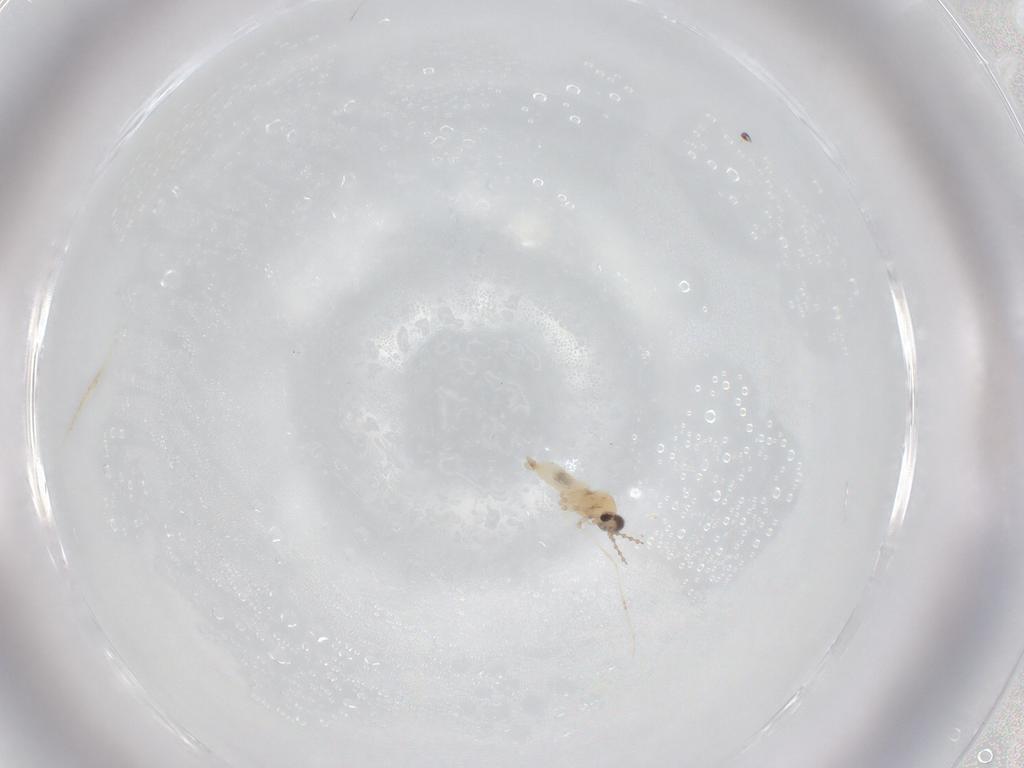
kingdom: Animalia
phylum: Arthropoda
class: Insecta
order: Diptera
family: Cecidomyiidae
